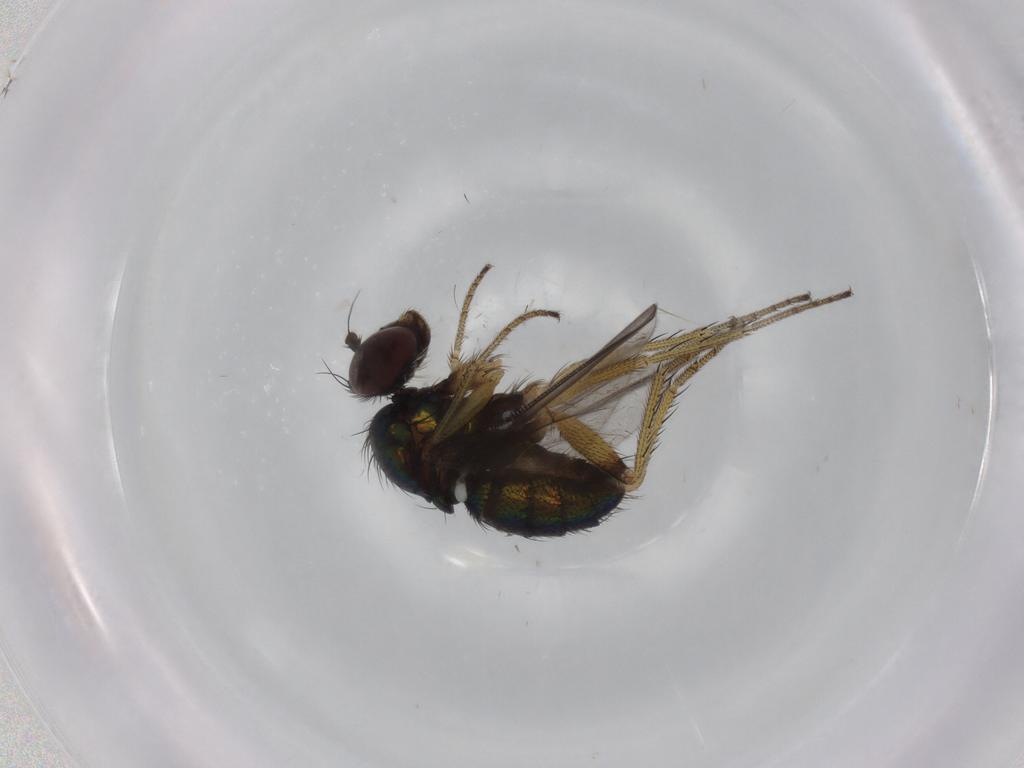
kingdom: Animalia
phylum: Arthropoda
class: Insecta
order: Diptera
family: Dolichopodidae
